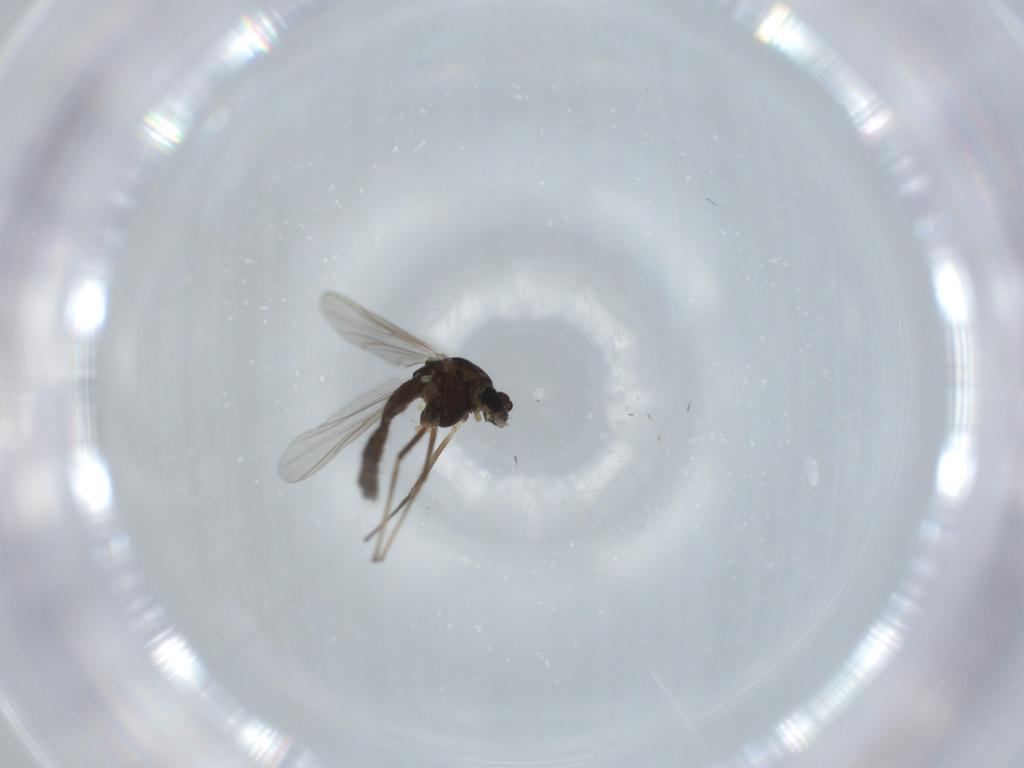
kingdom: Animalia
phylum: Arthropoda
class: Insecta
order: Diptera
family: Chironomidae
